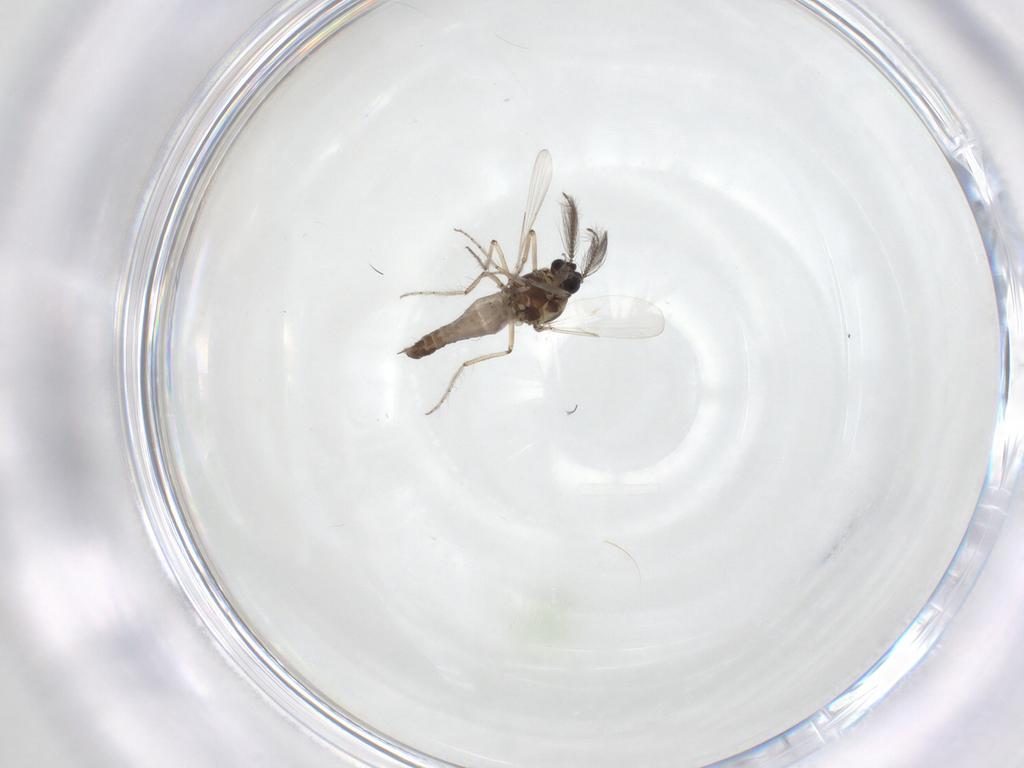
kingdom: Animalia
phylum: Arthropoda
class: Insecta
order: Diptera
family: Ceratopogonidae
